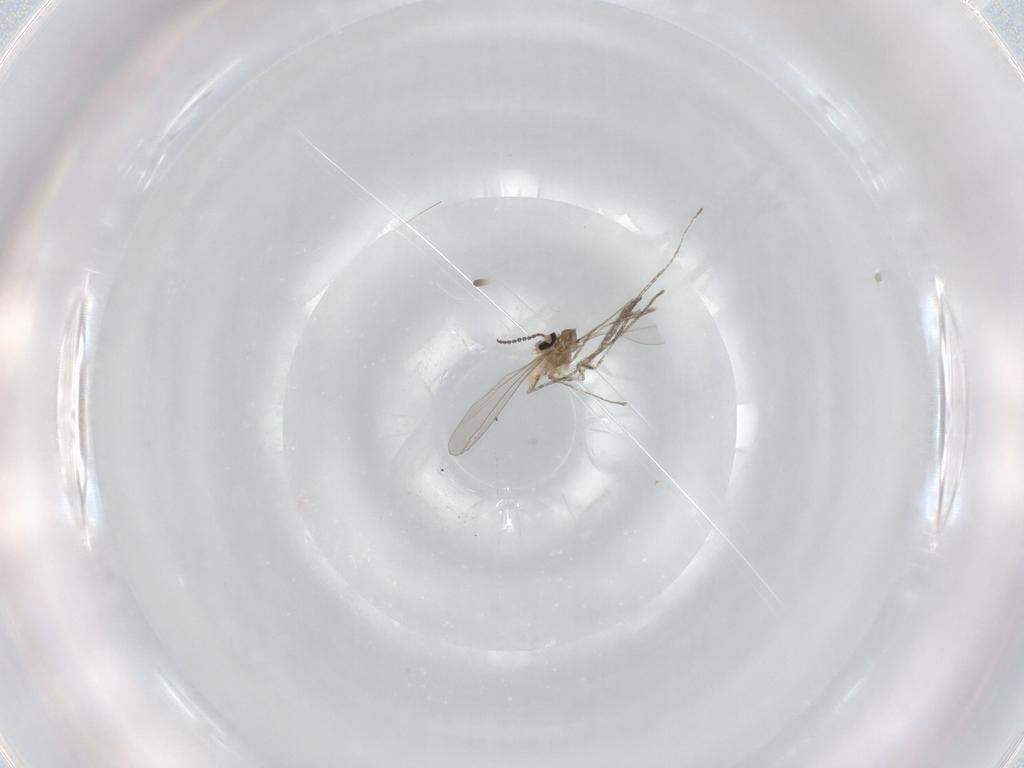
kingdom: Animalia
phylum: Arthropoda
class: Insecta
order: Diptera
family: Cecidomyiidae
